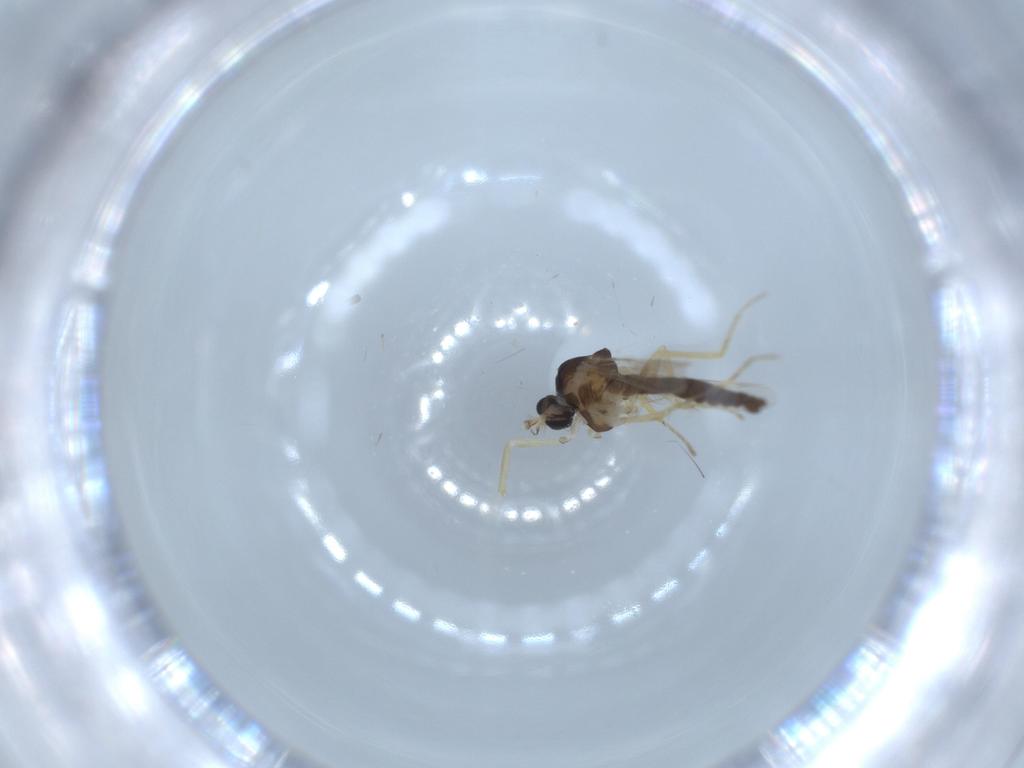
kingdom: Animalia
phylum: Arthropoda
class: Insecta
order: Diptera
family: Ceratopogonidae
